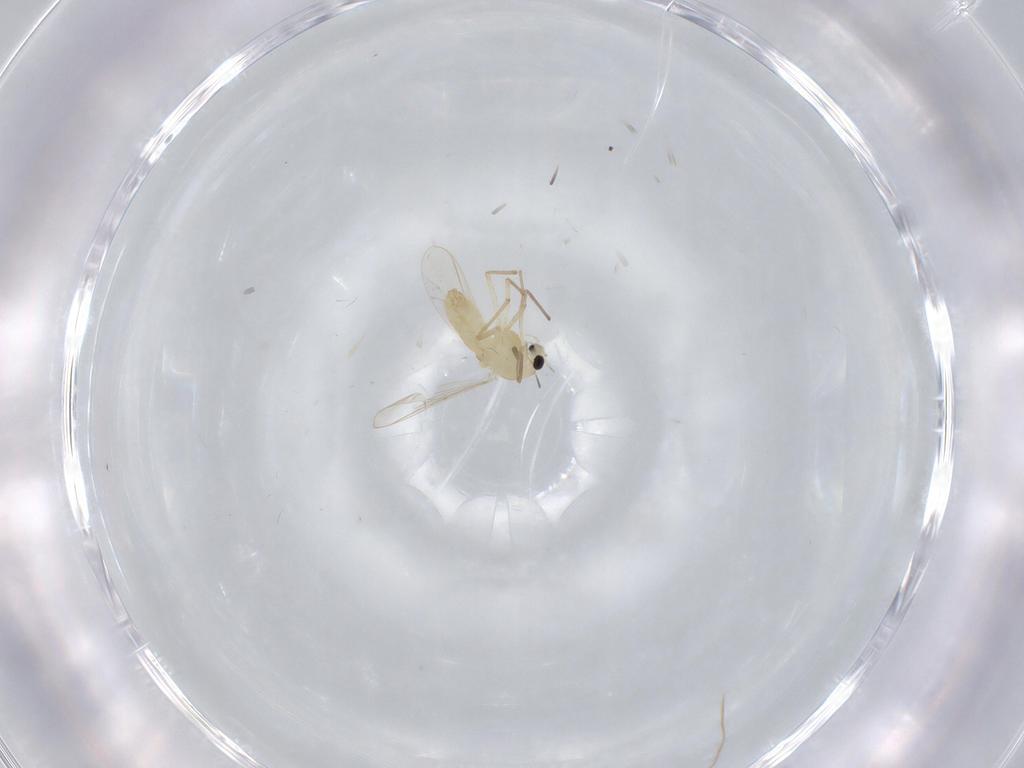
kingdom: Animalia
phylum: Arthropoda
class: Insecta
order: Diptera
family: Chironomidae
